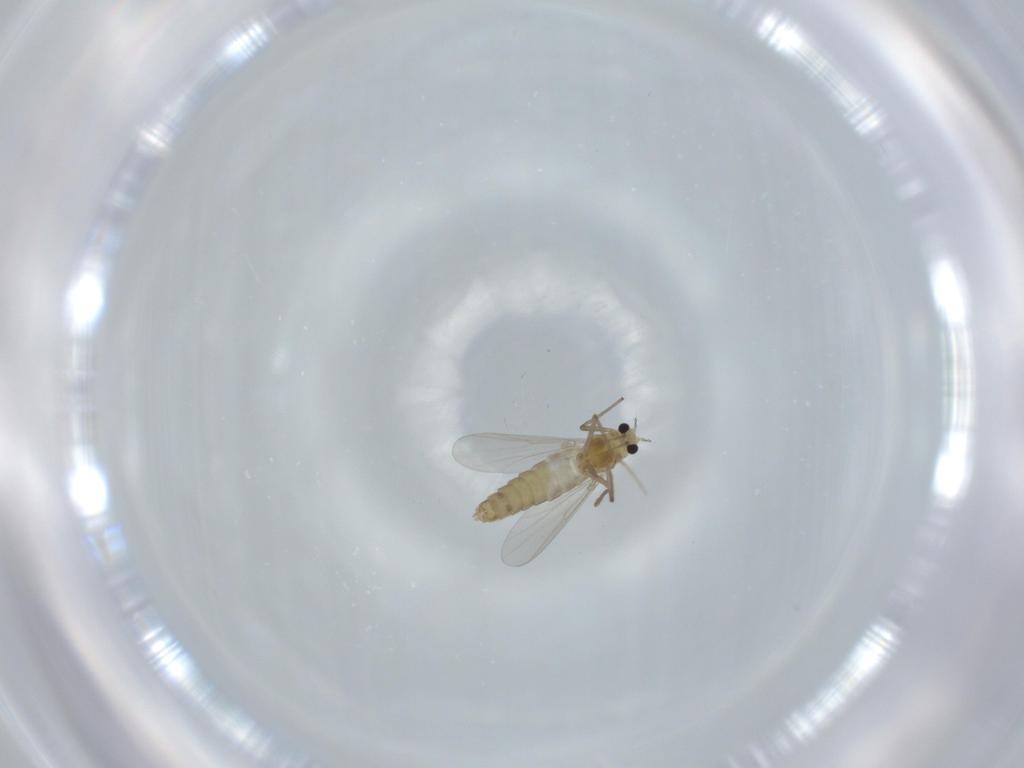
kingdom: Animalia
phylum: Arthropoda
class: Insecta
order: Diptera
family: Chironomidae
